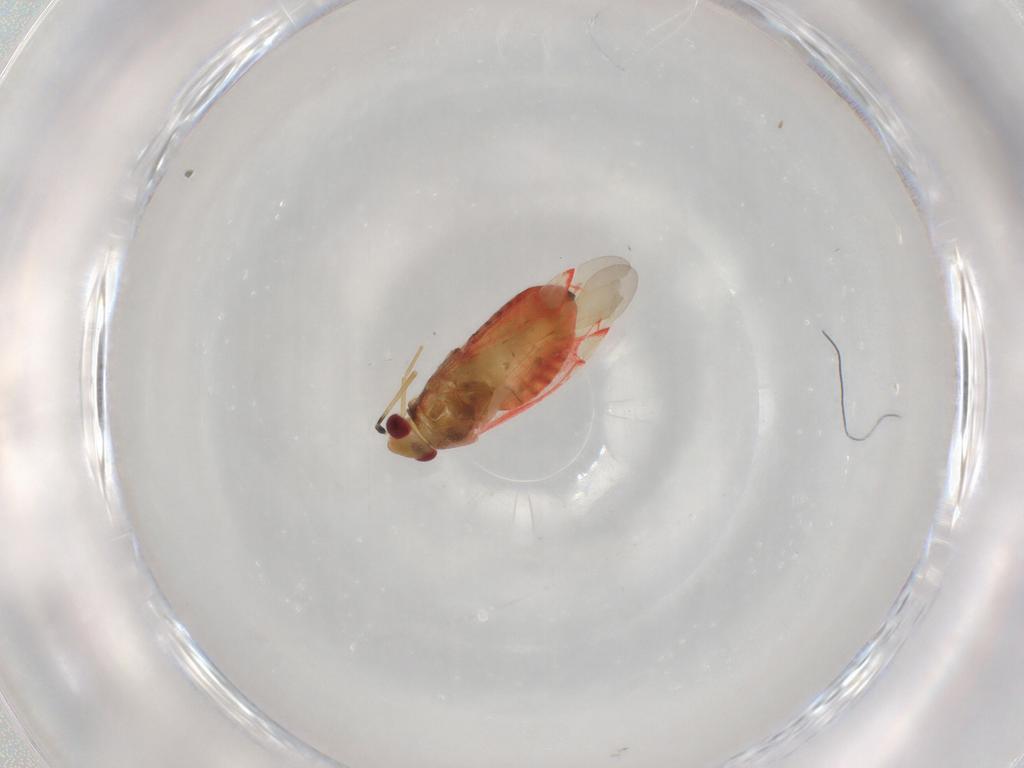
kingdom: Animalia
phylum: Arthropoda
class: Insecta
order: Hemiptera
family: Miridae
